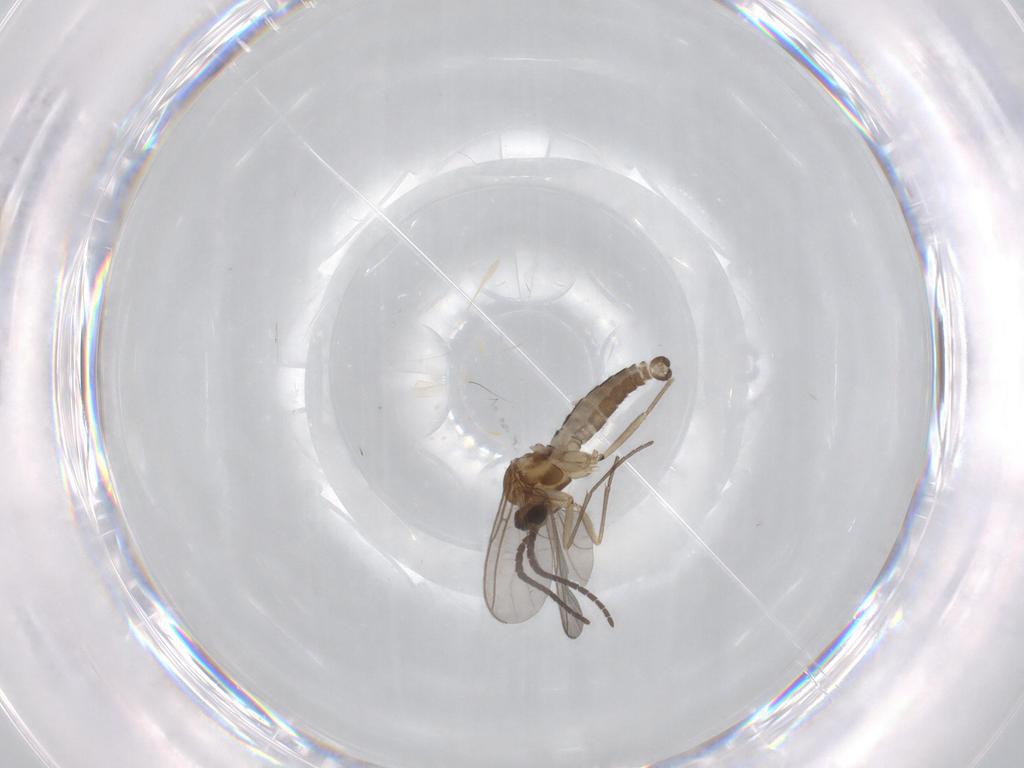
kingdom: Animalia
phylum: Arthropoda
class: Insecta
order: Diptera
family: Sciaridae
